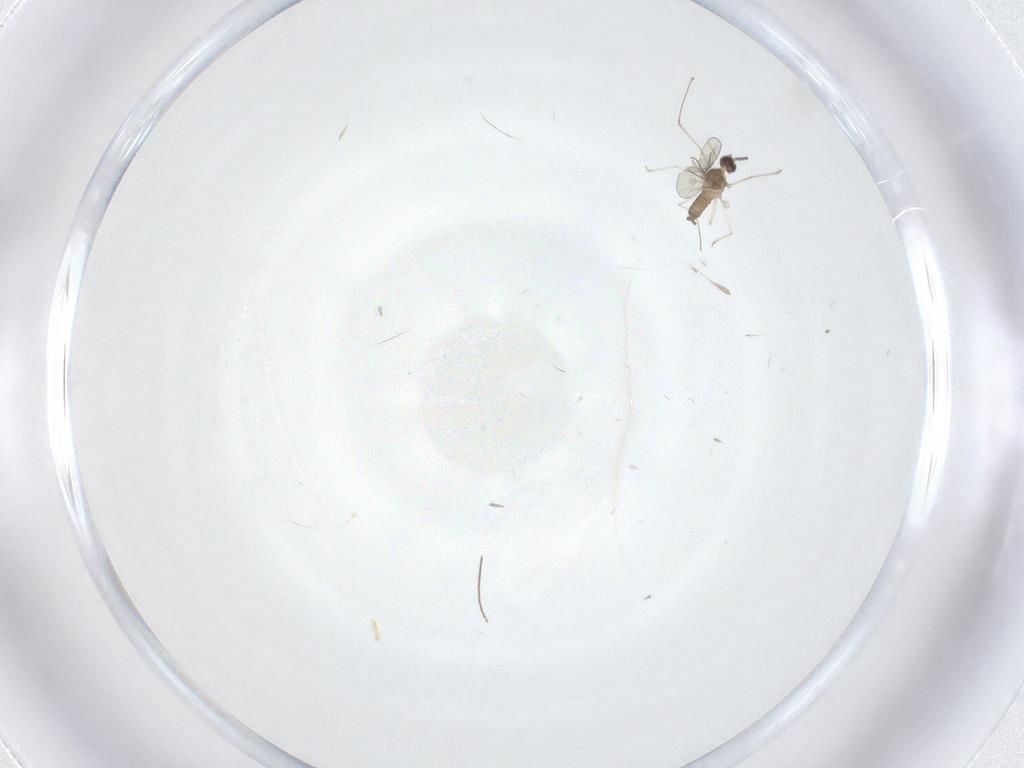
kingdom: Animalia
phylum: Arthropoda
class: Insecta
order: Diptera
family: Cecidomyiidae
